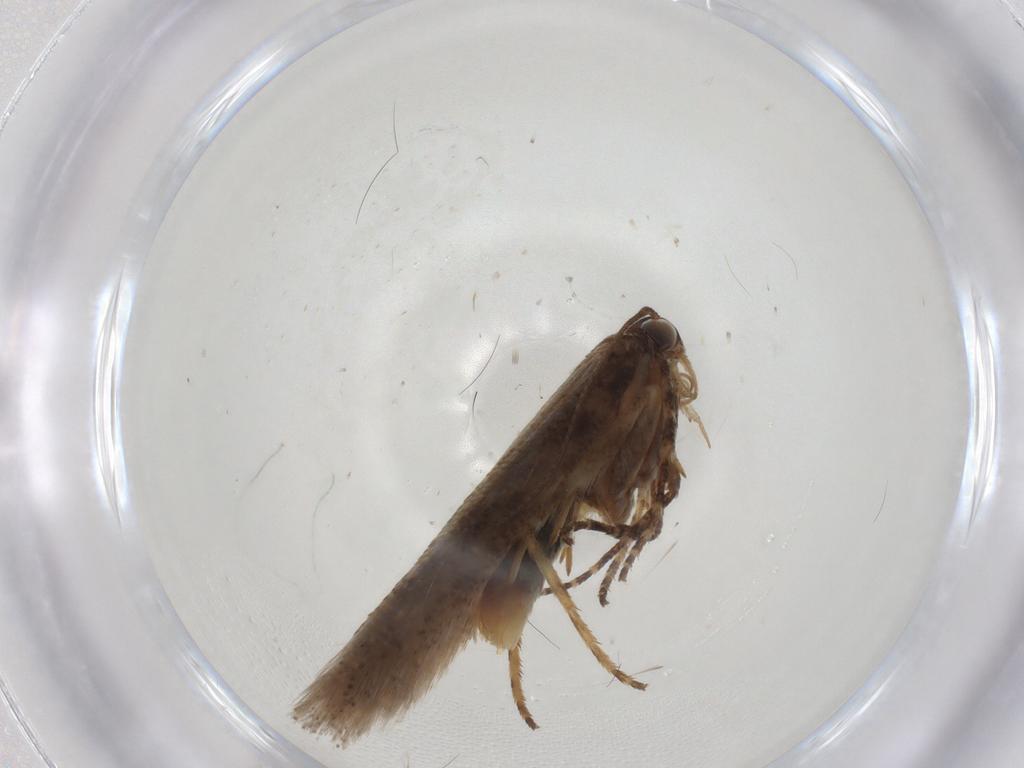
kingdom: Animalia
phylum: Arthropoda
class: Insecta
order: Lepidoptera
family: Gelechiidae
